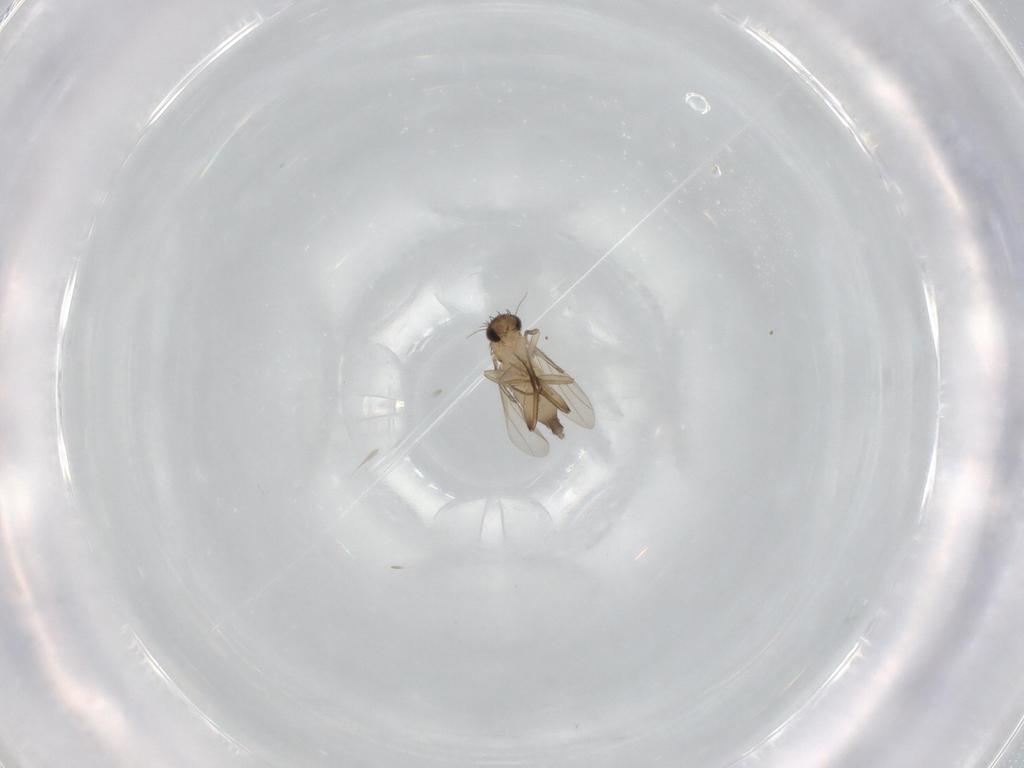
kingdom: Animalia
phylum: Arthropoda
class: Insecta
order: Diptera
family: Phoridae
